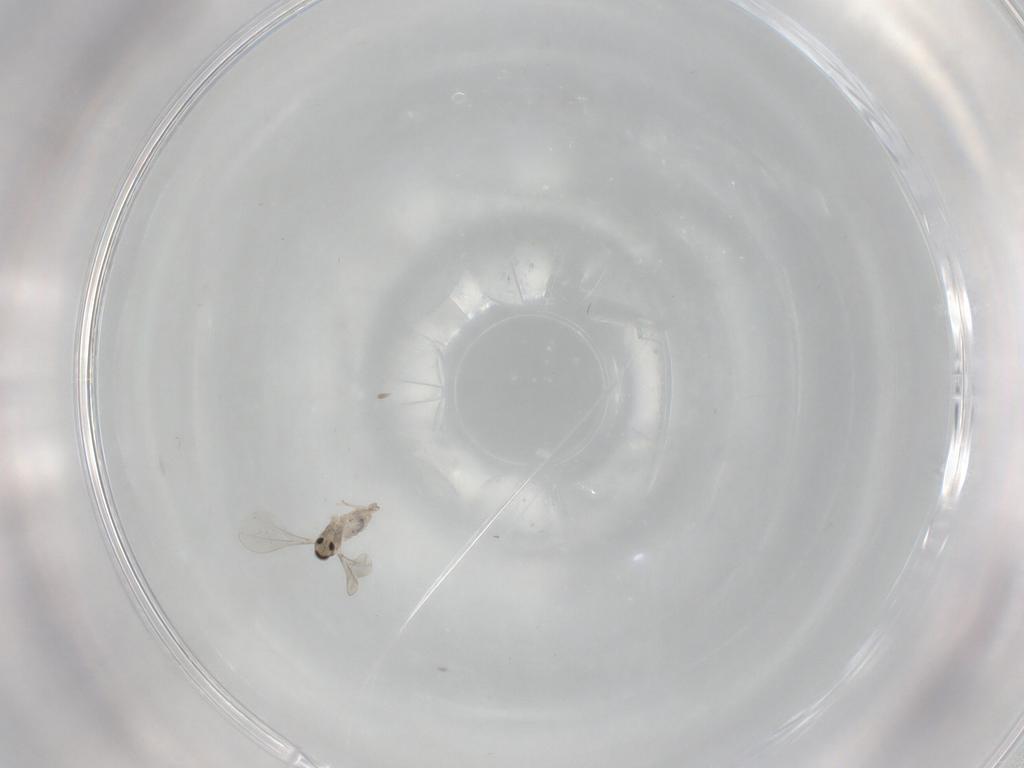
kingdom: Animalia
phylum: Arthropoda
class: Insecta
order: Diptera
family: Cecidomyiidae
